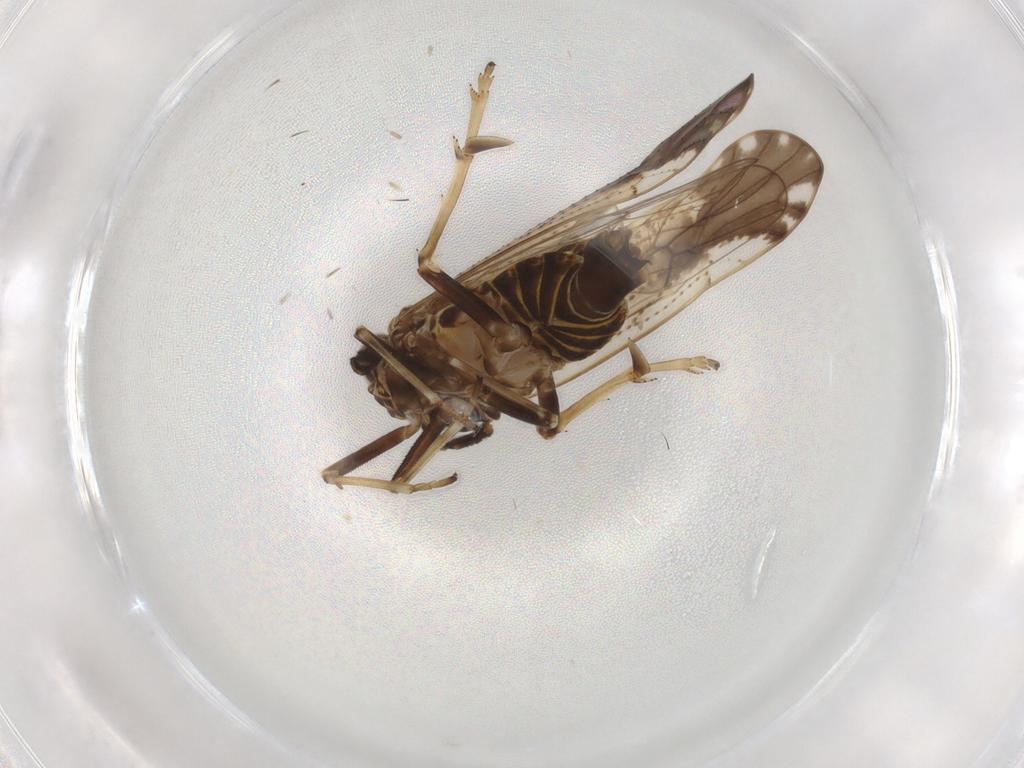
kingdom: Animalia
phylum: Arthropoda
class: Insecta
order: Hemiptera
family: Delphacidae
